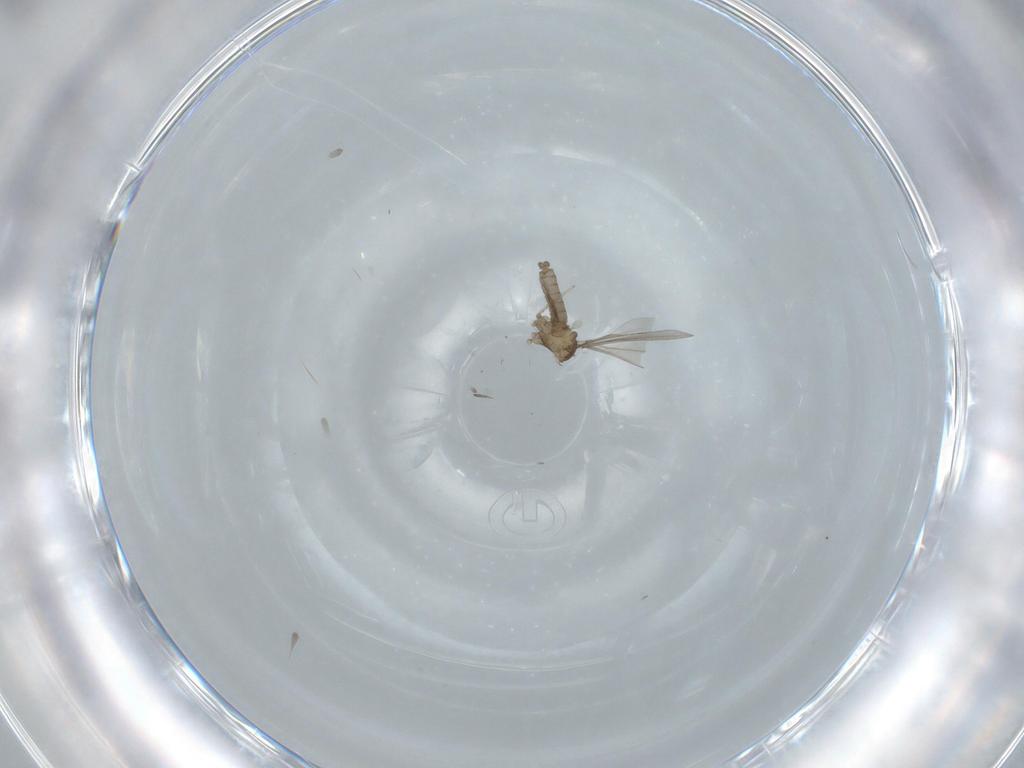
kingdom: Animalia
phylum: Arthropoda
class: Insecta
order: Diptera
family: Cecidomyiidae
